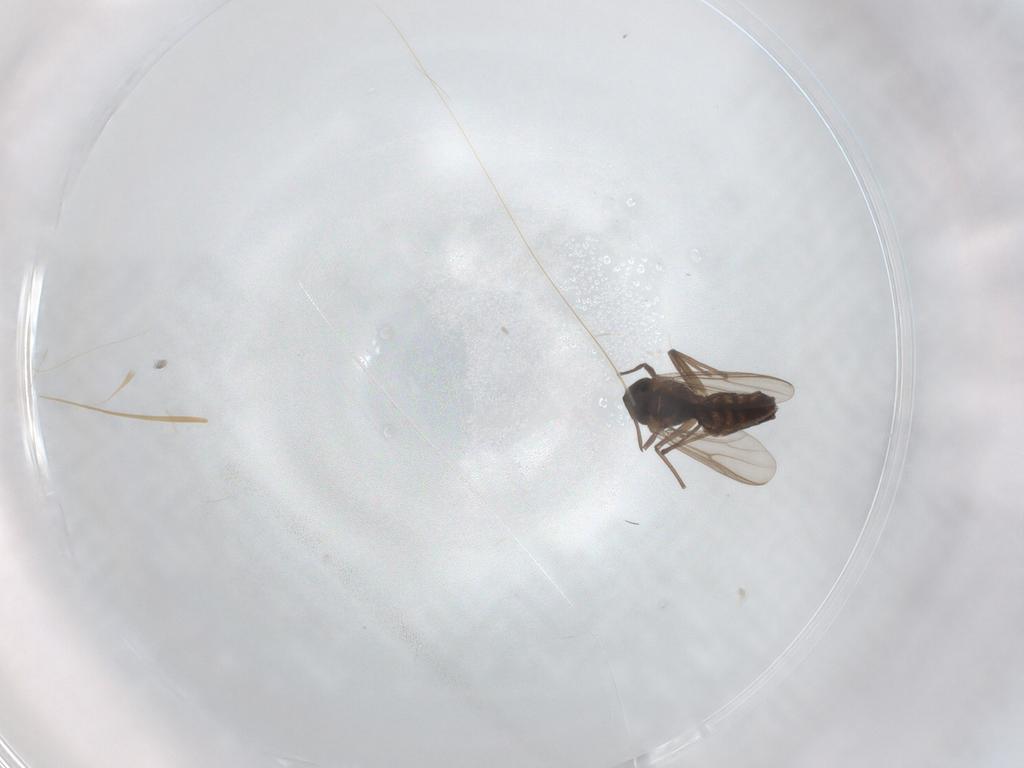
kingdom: Animalia
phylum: Arthropoda
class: Insecta
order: Diptera
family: Chironomidae
